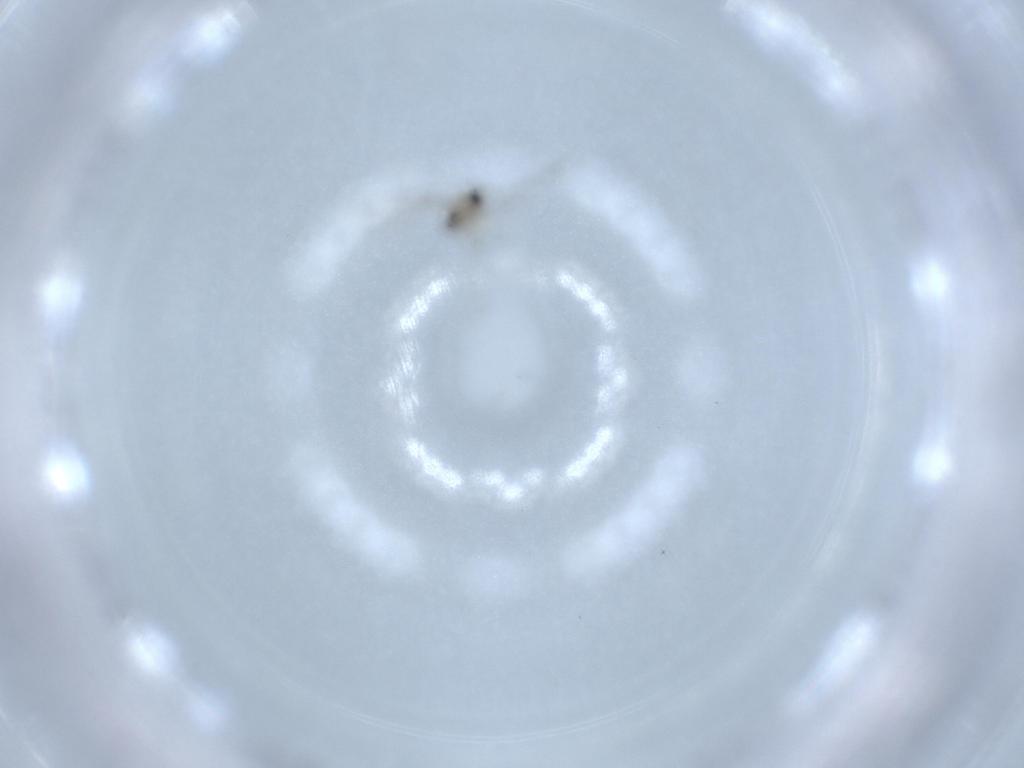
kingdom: Animalia
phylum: Arthropoda
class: Insecta
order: Diptera
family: Cecidomyiidae
